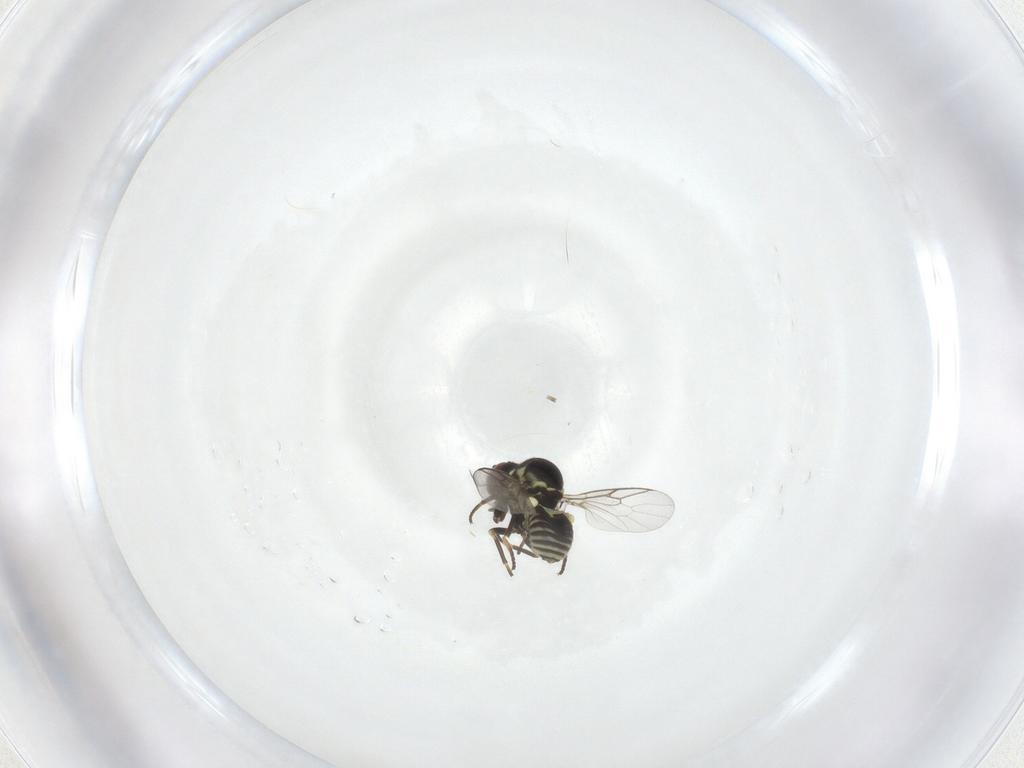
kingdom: Animalia
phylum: Arthropoda
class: Insecta
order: Diptera
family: Mythicomyiidae
